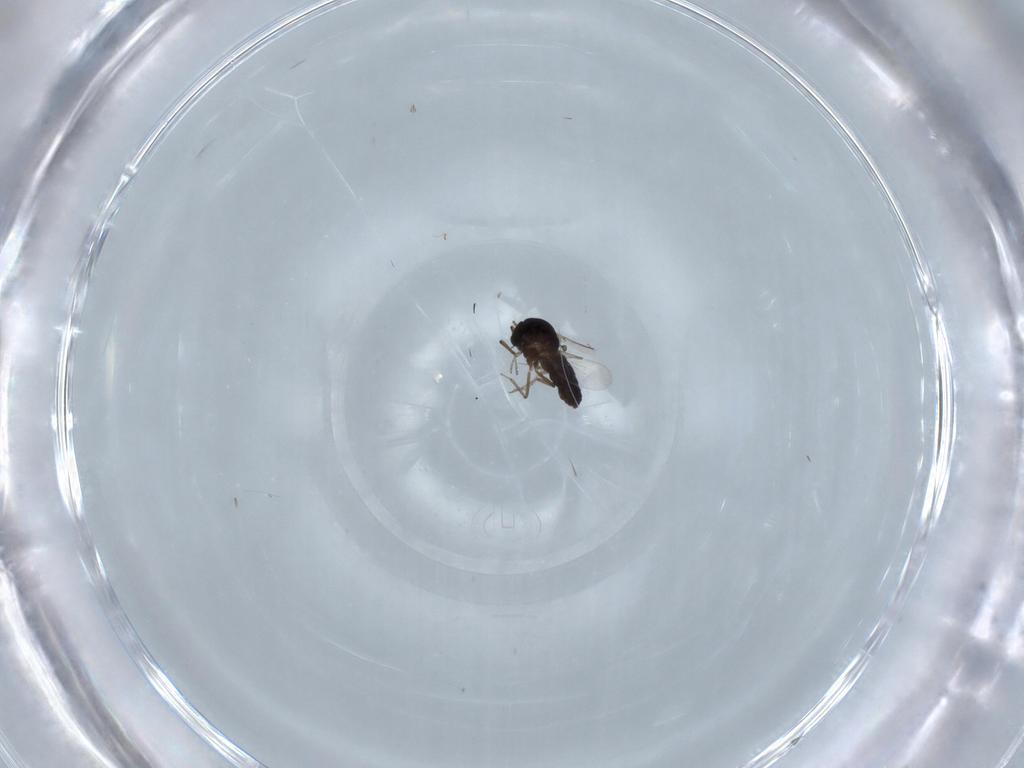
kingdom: Animalia
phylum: Arthropoda
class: Insecta
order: Diptera
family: Ceratopogonidae
